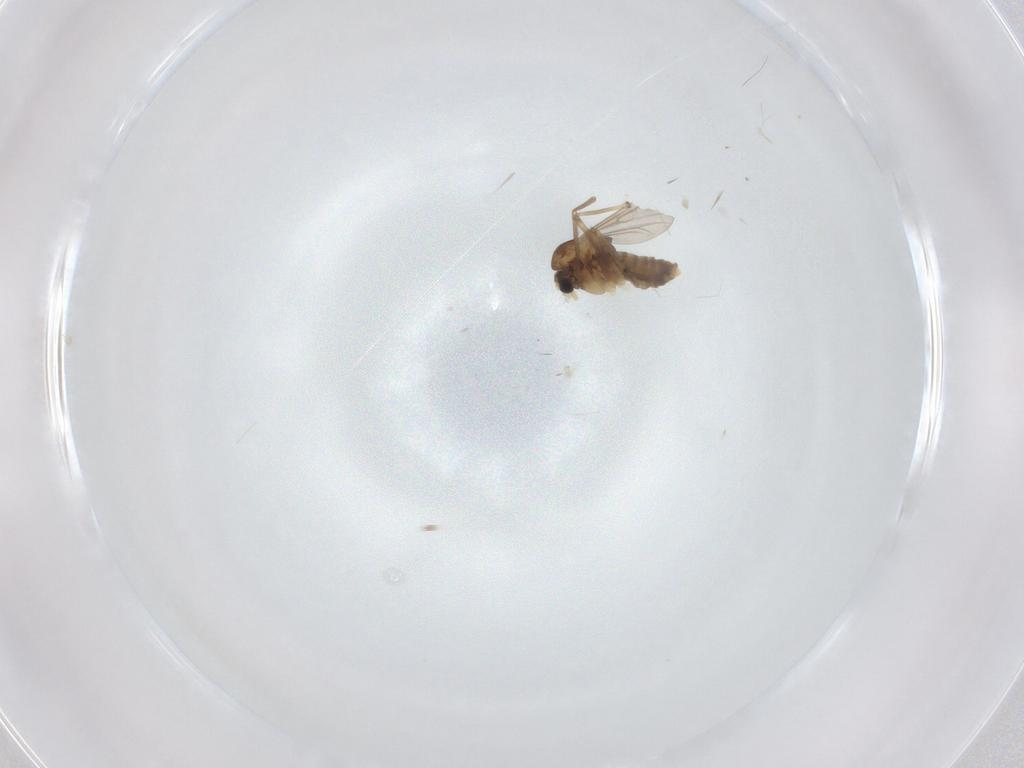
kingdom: Animalia
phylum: Arthropoda
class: Insecta
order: Diptera
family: Chironomidae
